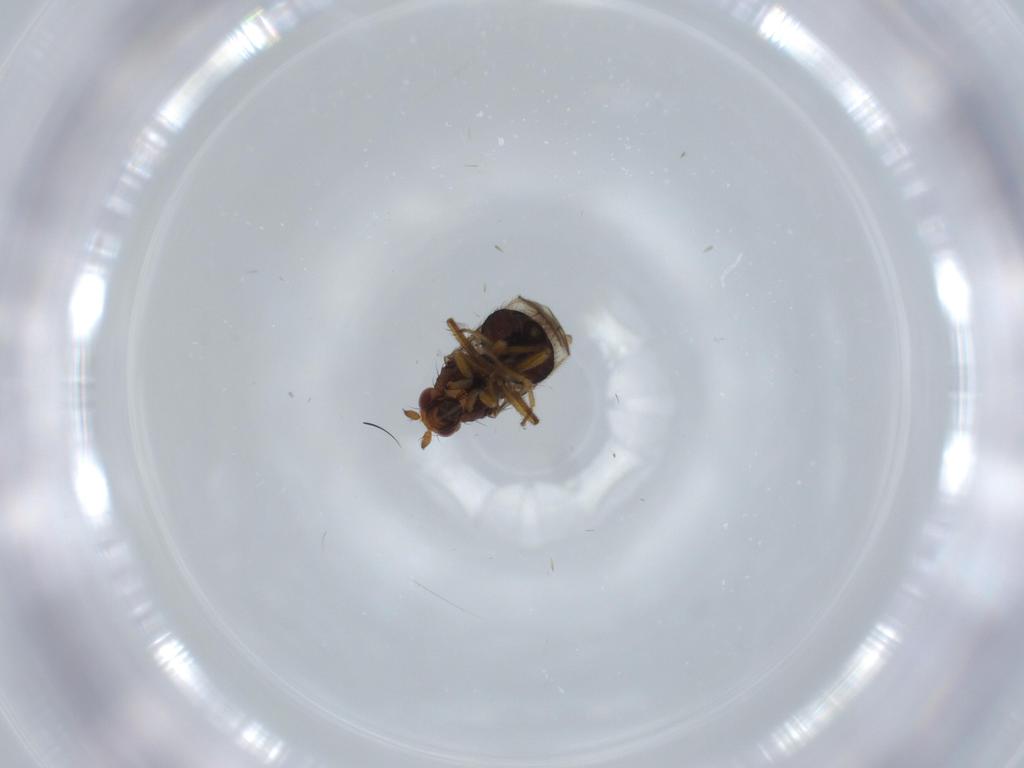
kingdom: Animalia
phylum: Arthropoda
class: Insecta
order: Diptera
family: Sphaeroceridae
